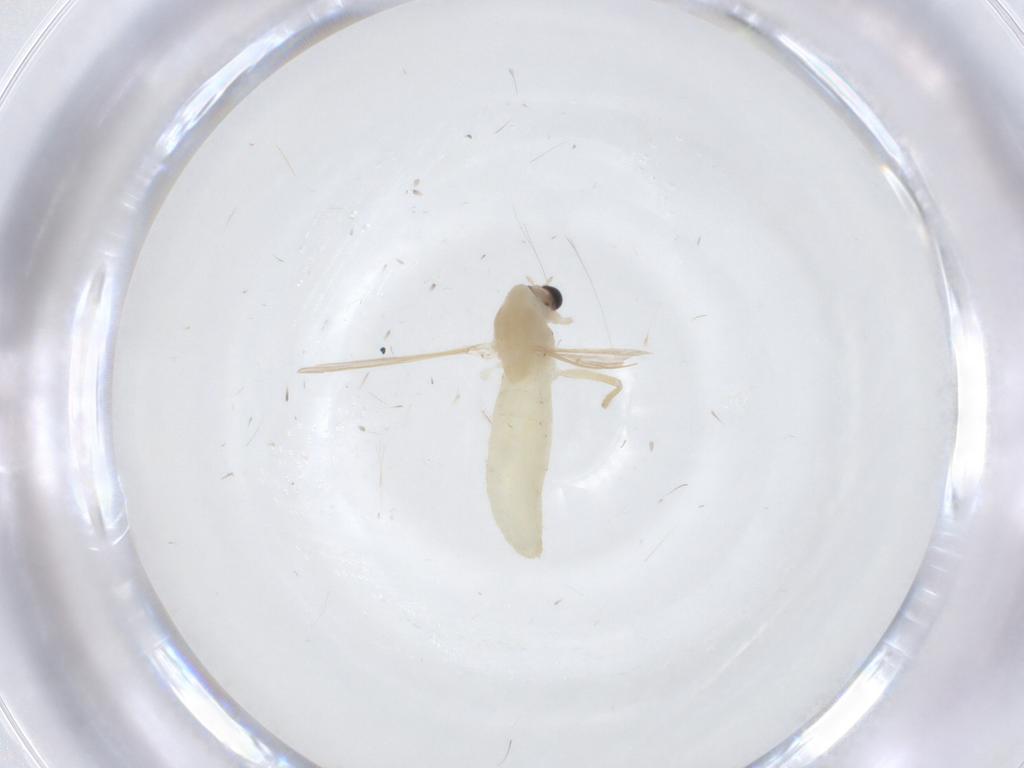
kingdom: Animalia
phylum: Arthropoda
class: Insecta
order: Diptera
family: Chironomidae
